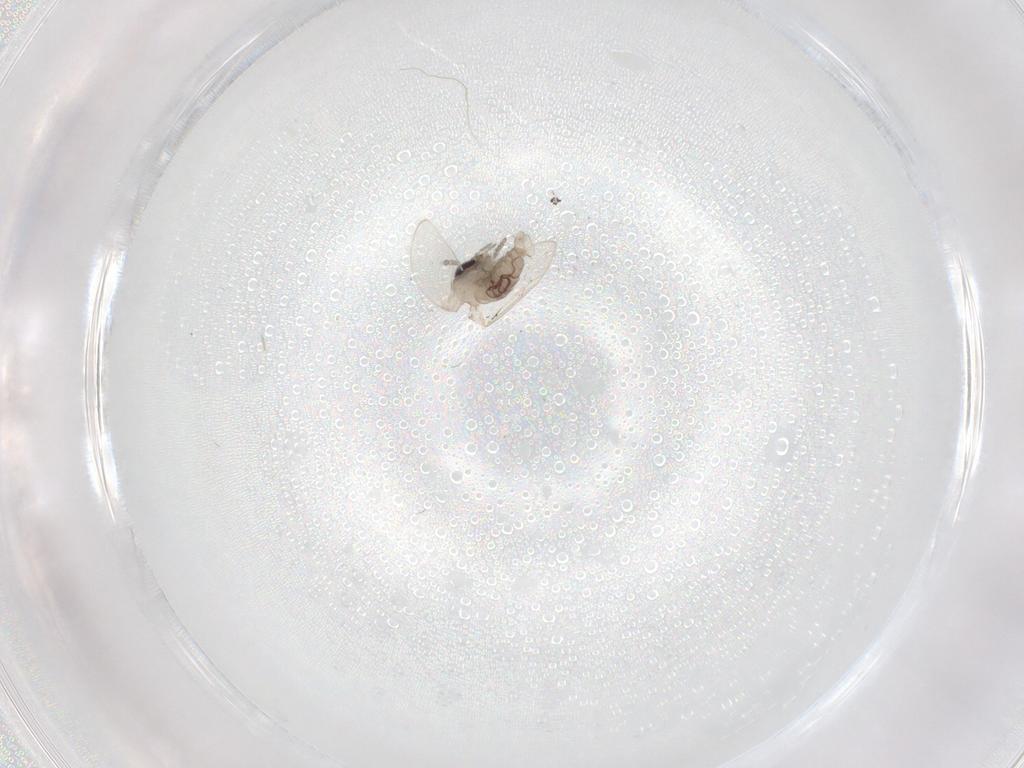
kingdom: Animalia
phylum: Arthropoda
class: Insecta
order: Diptera
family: Psychodidae
